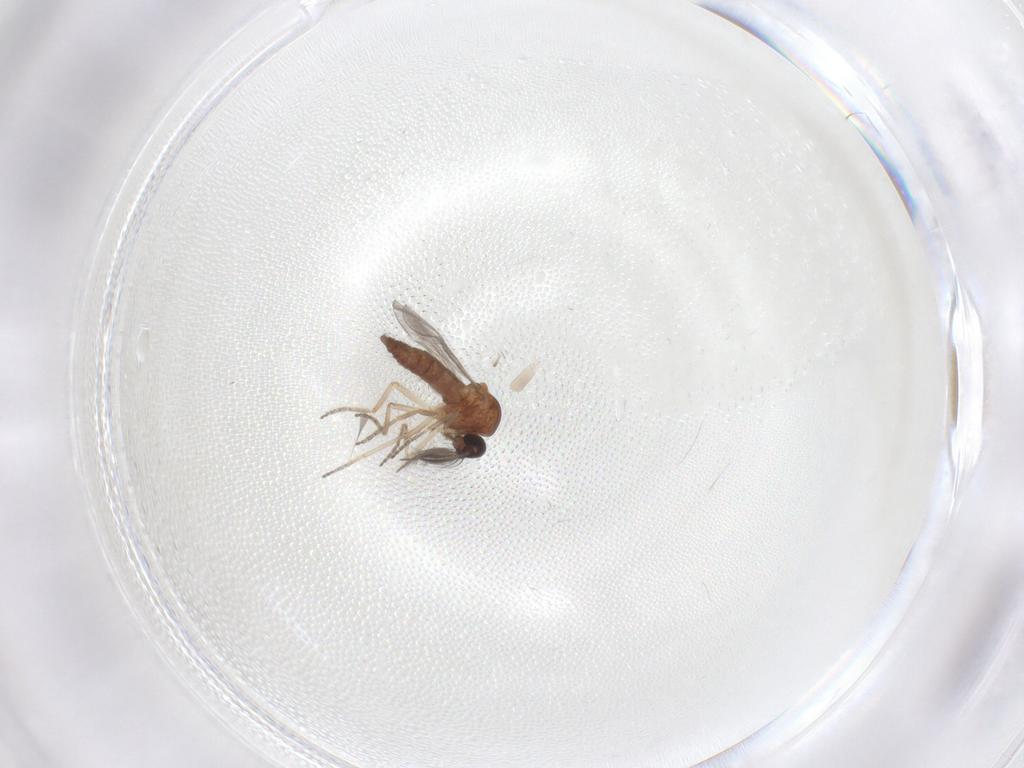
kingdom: Animalia
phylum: Arthropoda
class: Insecta
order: Diptera
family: Ceratopogonidae
